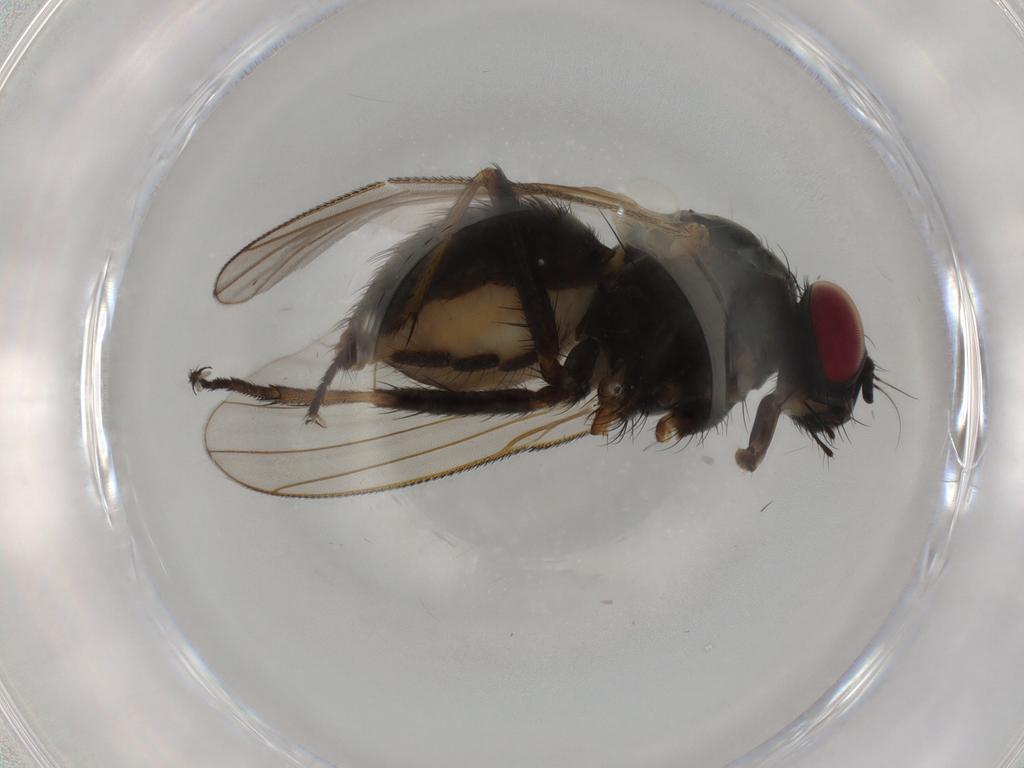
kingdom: Animalia
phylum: Arthropoda
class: Insecta
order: Diptera
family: Muscidae
